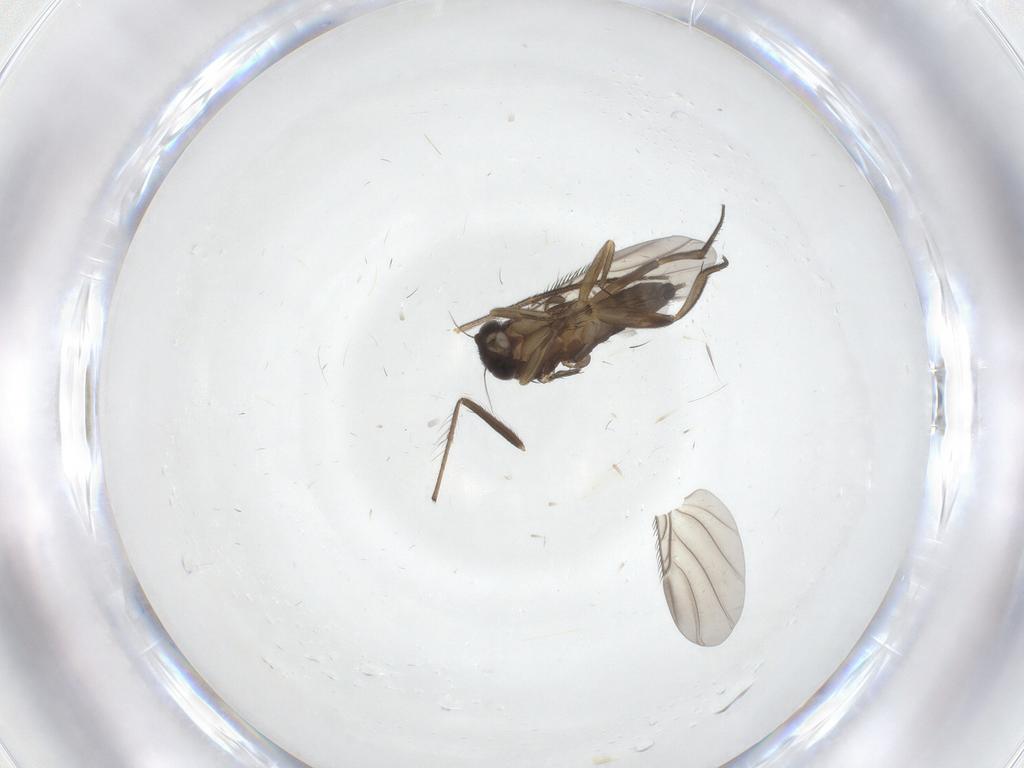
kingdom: Animalia
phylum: Arthropoda
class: Insecta
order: Diptera
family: Chironomidae
